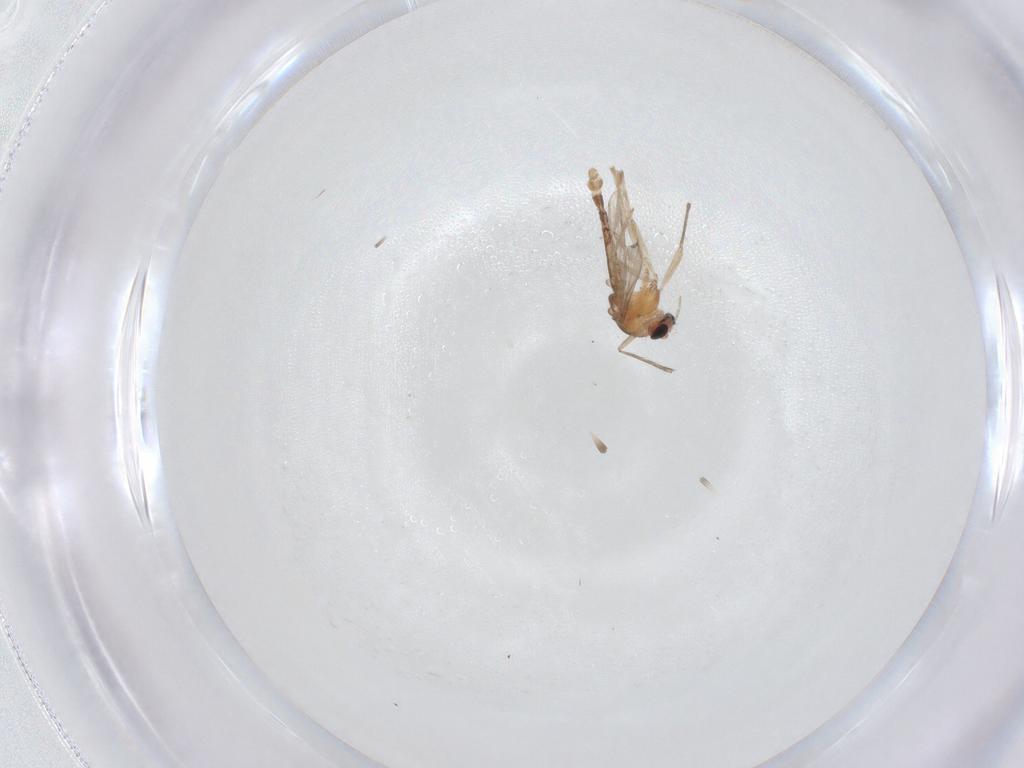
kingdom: Animalia
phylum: Arthropoda
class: Insecta
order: Diptera
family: Chironomidae
